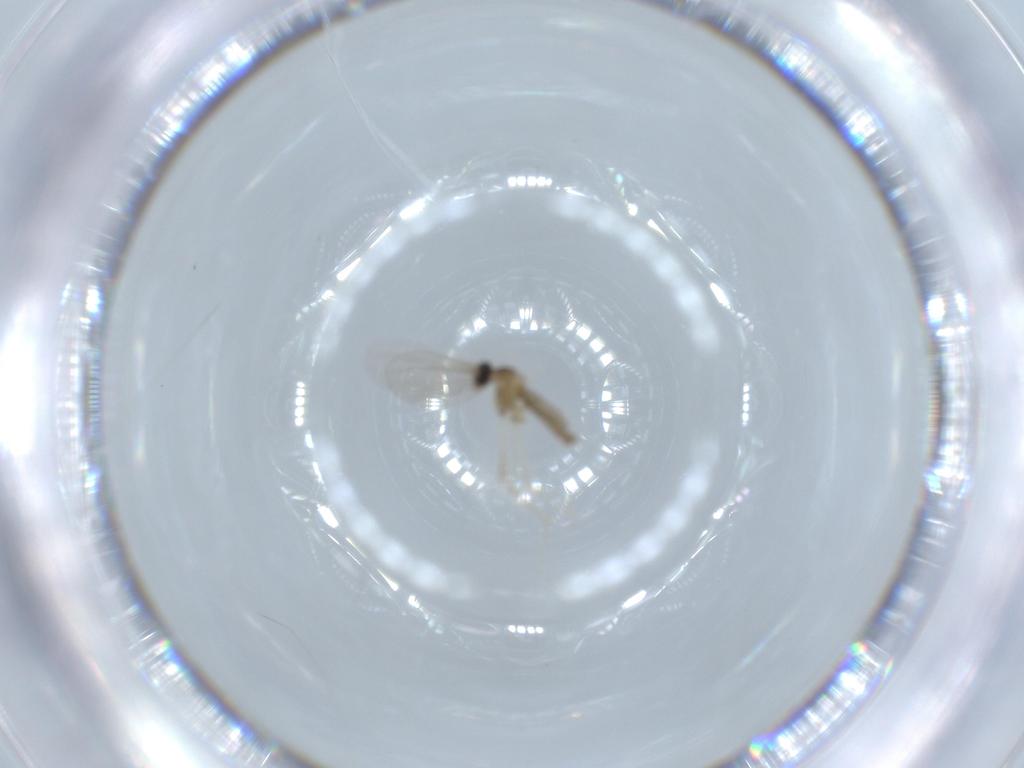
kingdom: Animalia
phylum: Arthropoda
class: Insecta
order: Diptera
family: Cecidomyiidae
